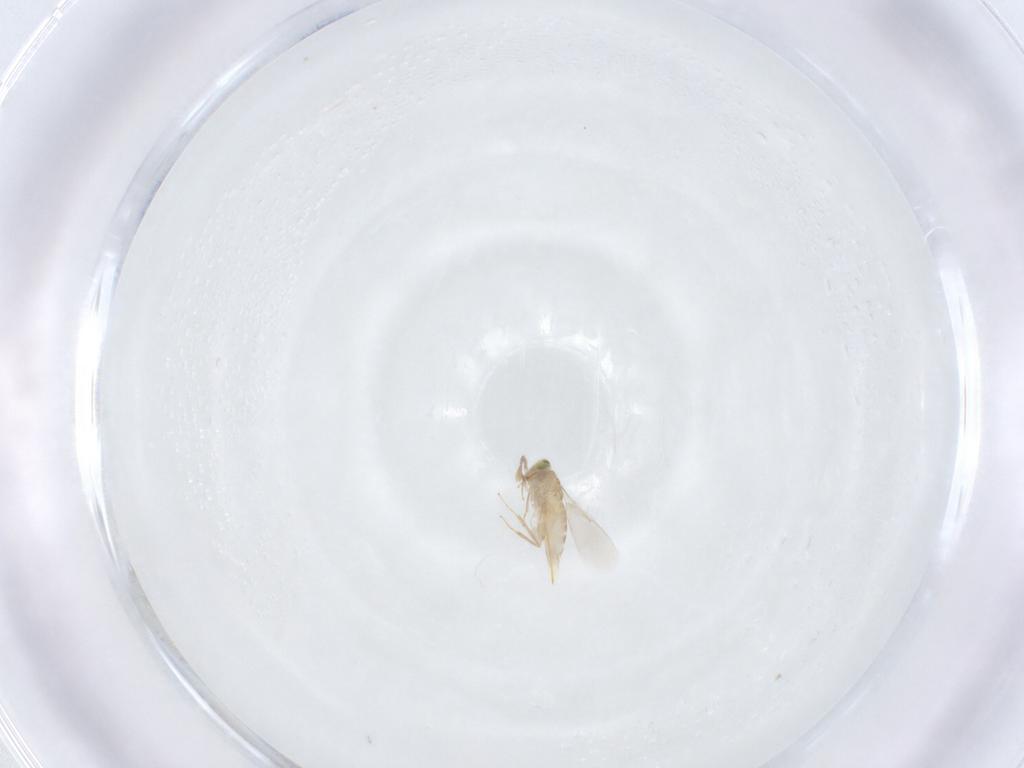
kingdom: Animalia
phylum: Arthropoda
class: Insecta
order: Hymenoptera
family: Aphelinidae
